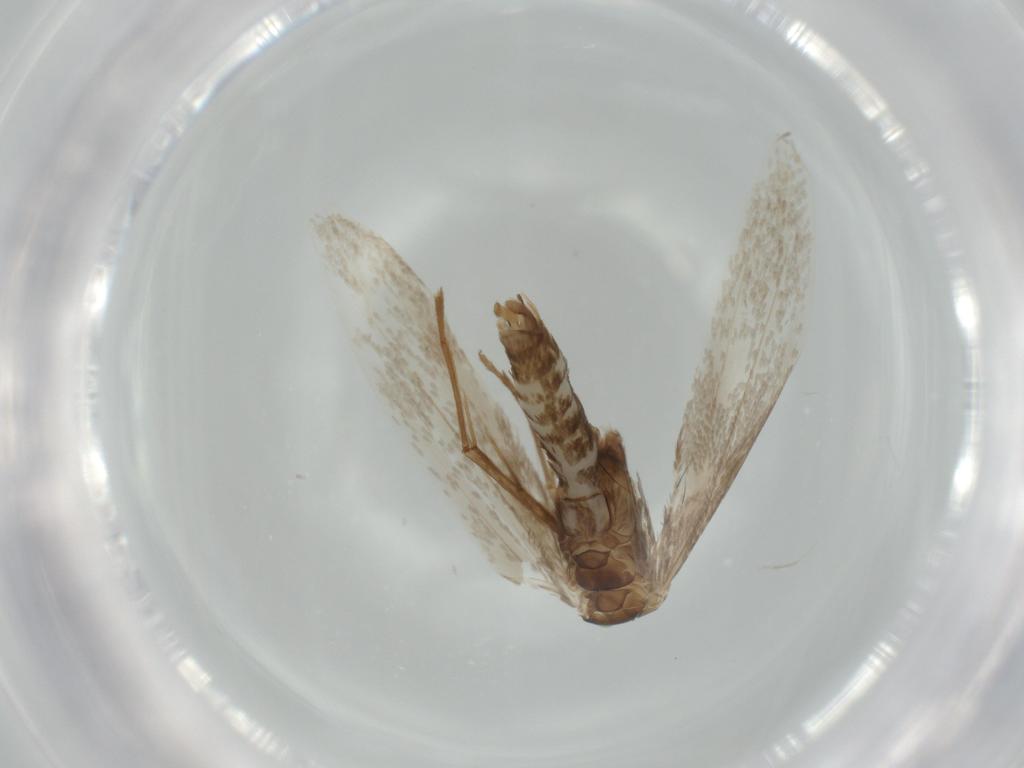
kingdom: Animalia
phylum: Arthropoda
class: Insecta
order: Lepidoptera
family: Gracillariidae
